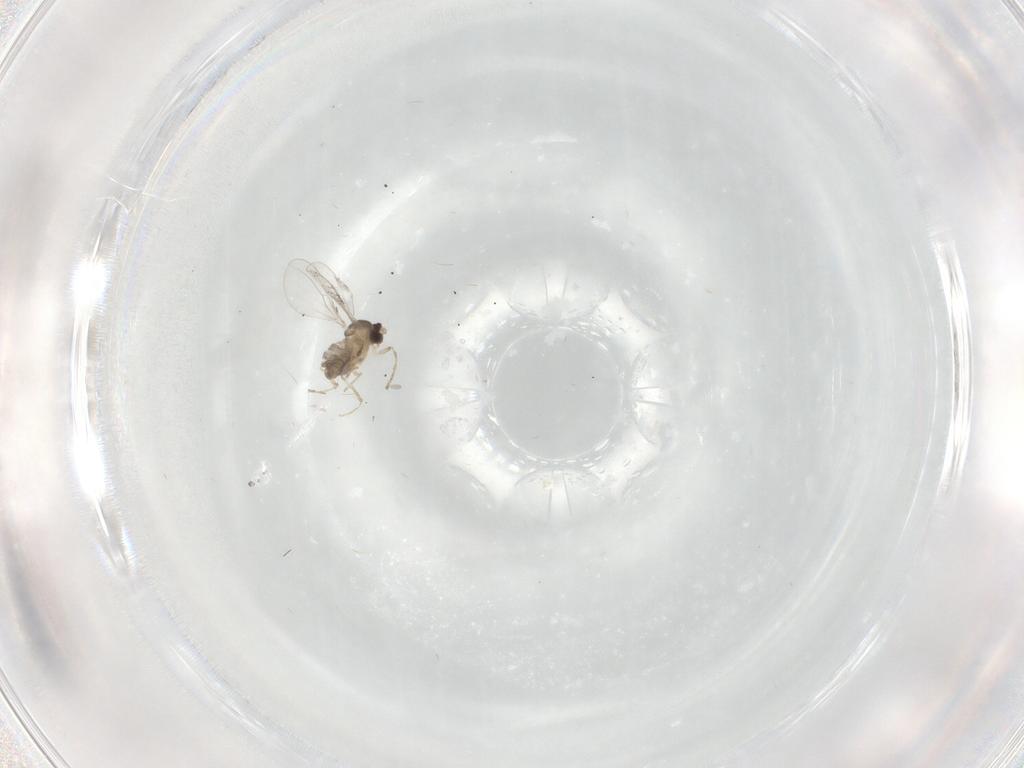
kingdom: Animalia
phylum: Arthropoda
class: Insecta
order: Diptera
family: Cecidomyiidae
